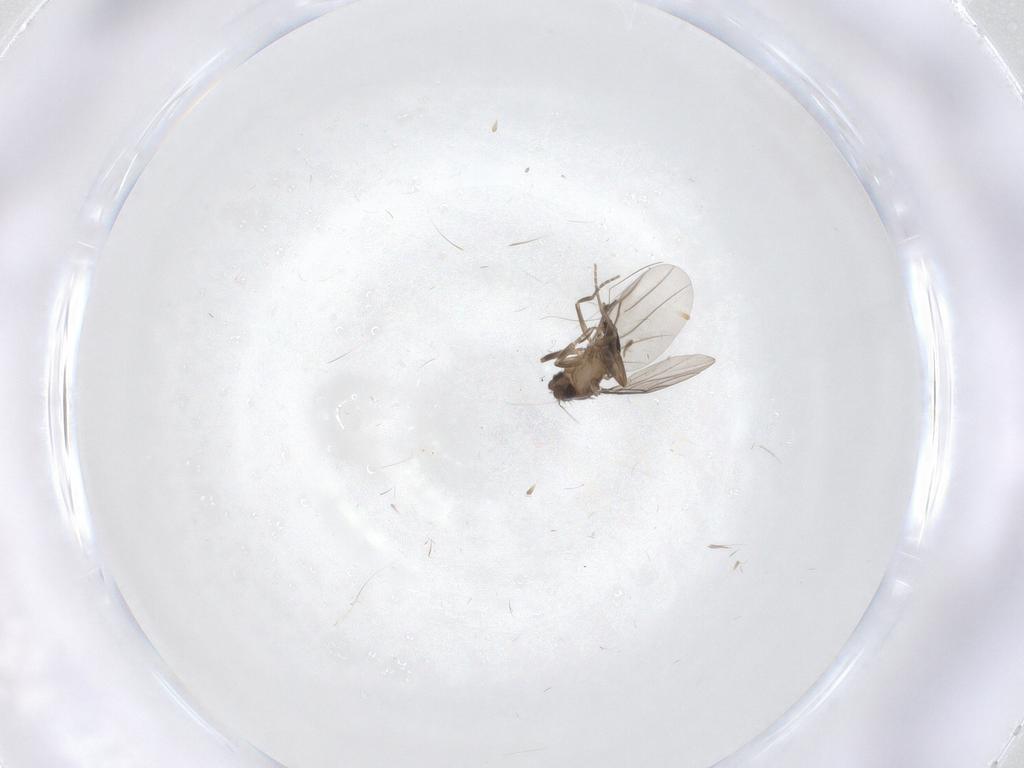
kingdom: Animalia
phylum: Arthropoda
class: Insecta
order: Diptera
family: Phoridae
